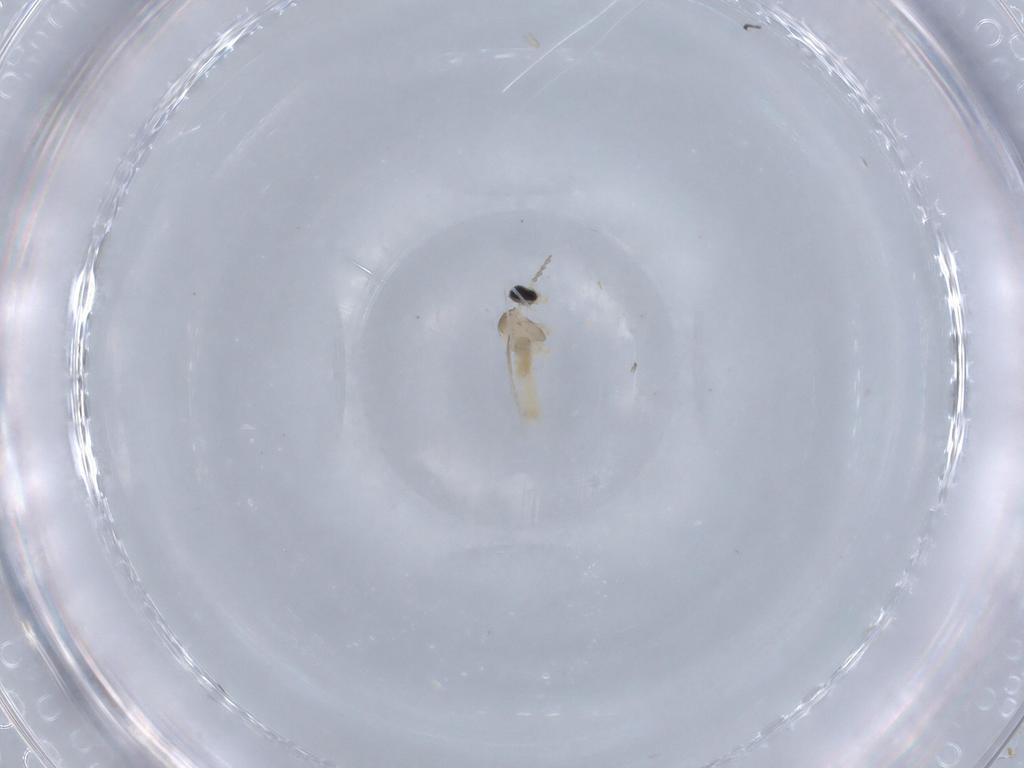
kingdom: Animalia
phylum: Arthropoda
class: Insecta
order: Diptera
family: Cecidomyiidae
